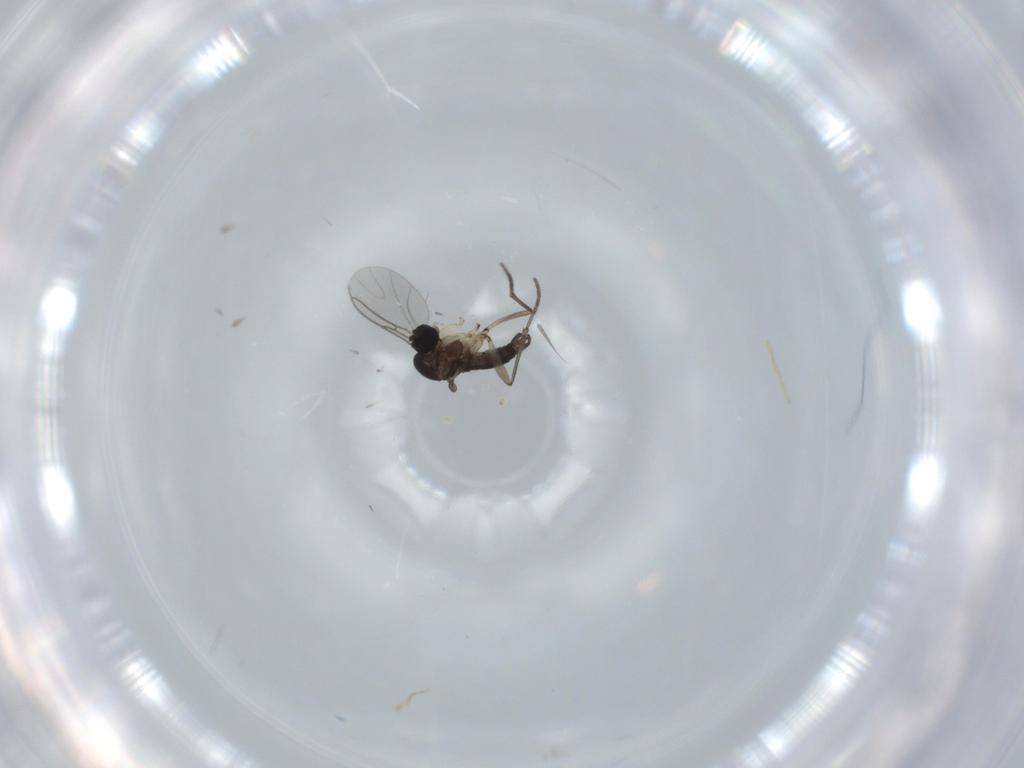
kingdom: Animalia
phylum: Arthropoda
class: Insecta
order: Diptera
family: Sciaridae
